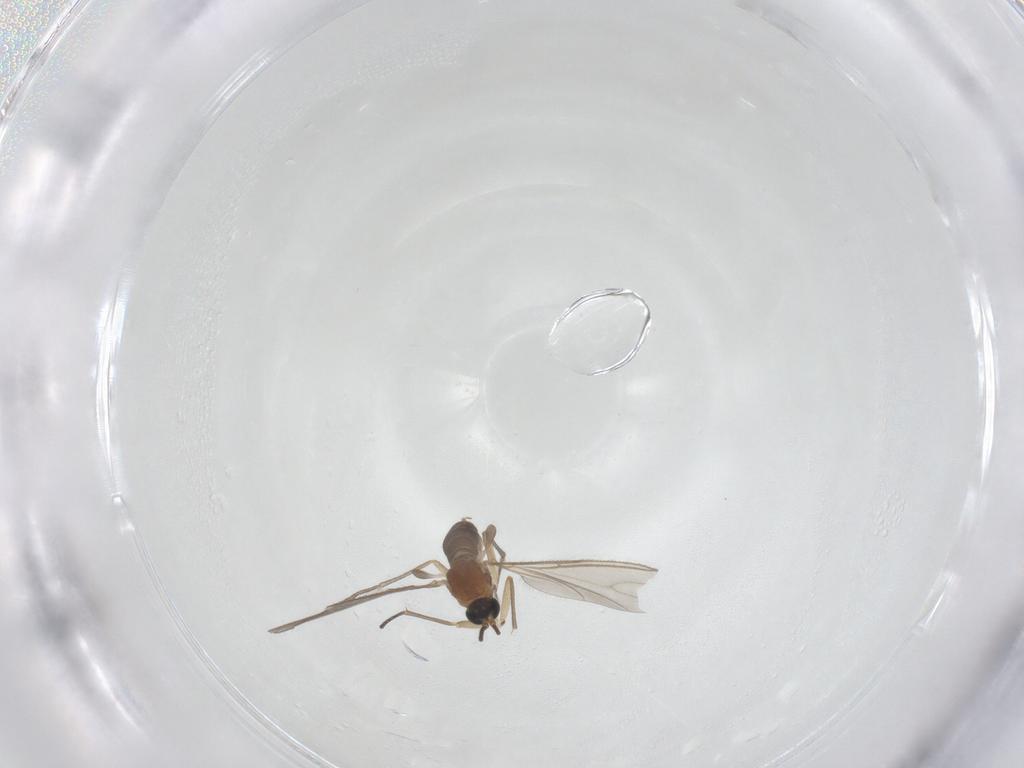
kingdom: Animalia
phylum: Arthropoda
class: Insecta
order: Diptera
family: Sciaridae
